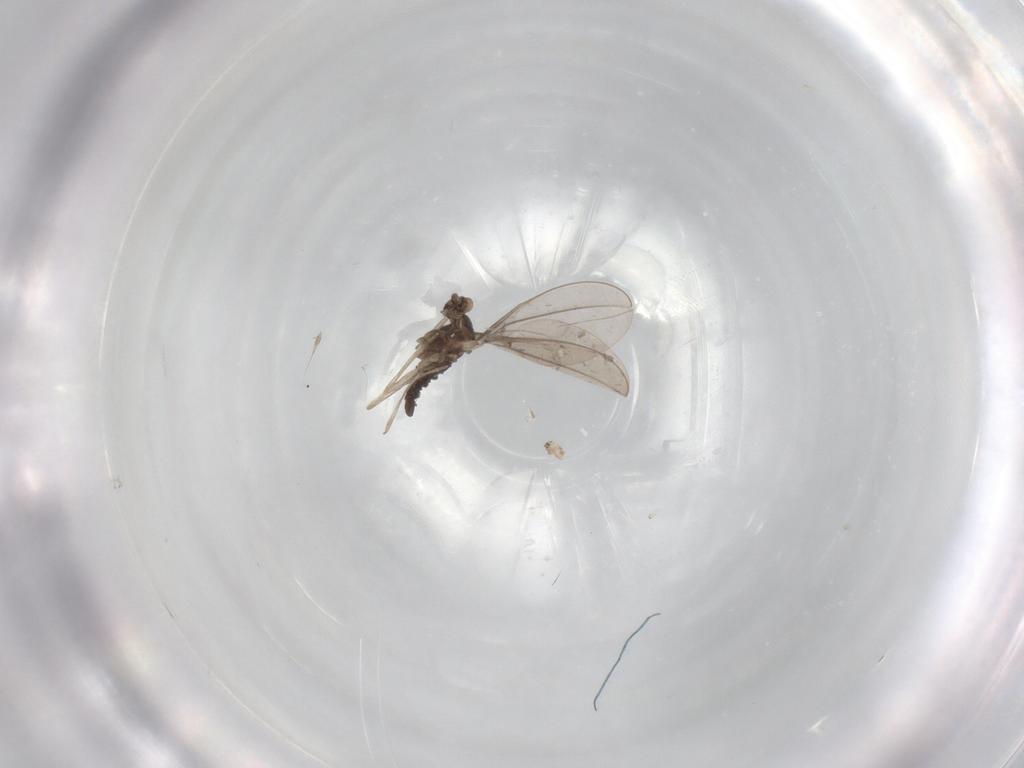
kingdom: Animalia
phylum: Arthropoda
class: Insecta
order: Diptera
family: Cecidomyiidae
